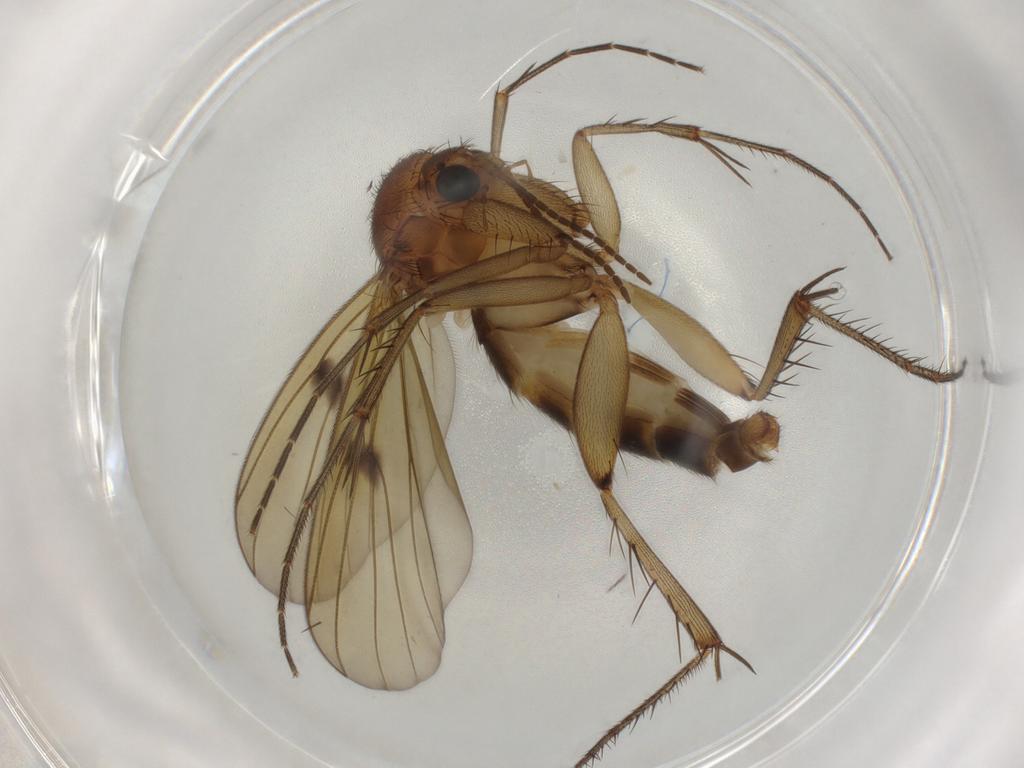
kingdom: Animalia
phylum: Arthropoda
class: Insecta
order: Diptera
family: Mycetophilidae
